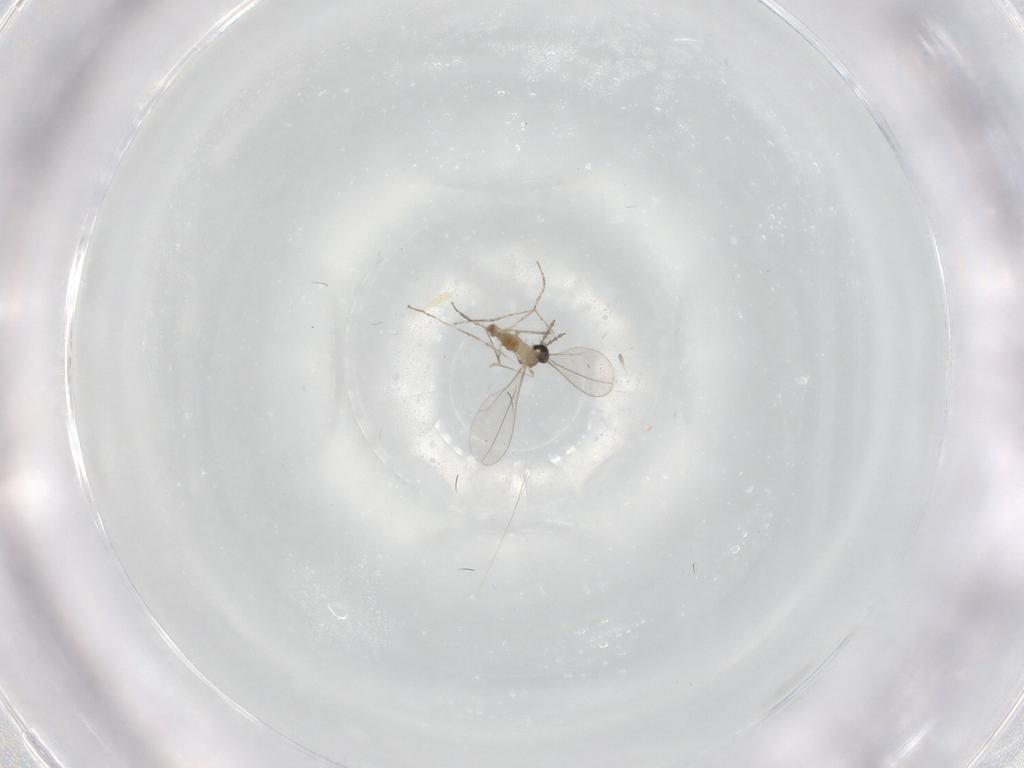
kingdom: Animalia
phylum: Arthropoda
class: Insecta
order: Diptera
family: Cecidomyiidae
